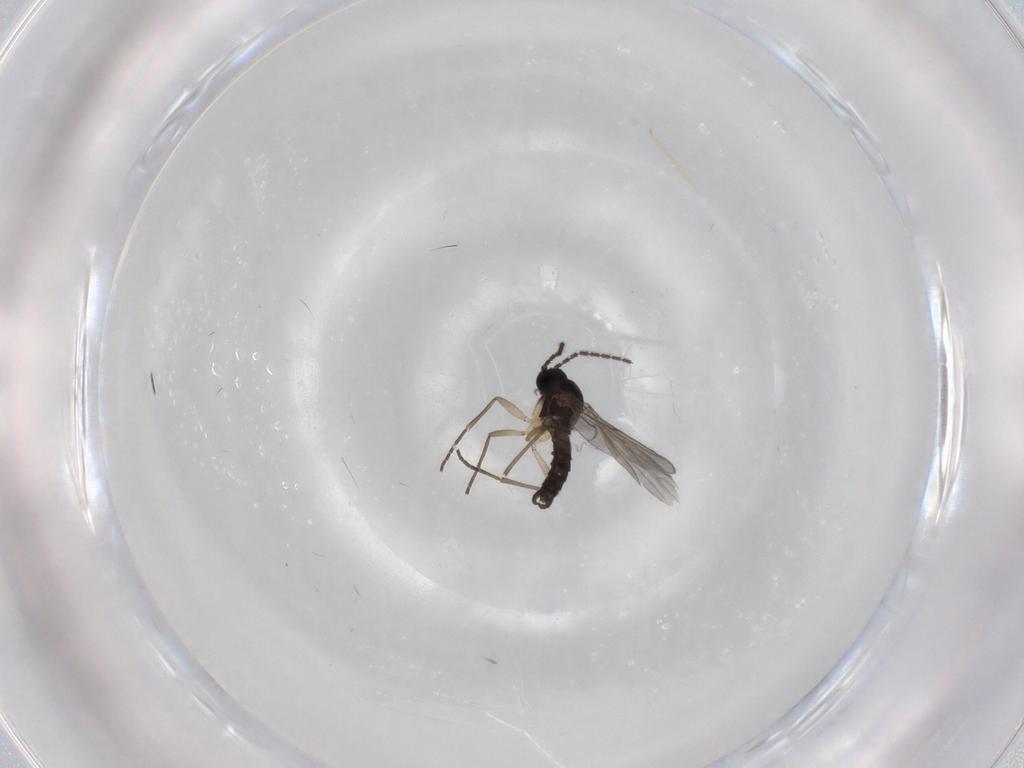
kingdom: Animalia
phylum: Arthropoda
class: Insecta
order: Diptera
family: Sciaridae
